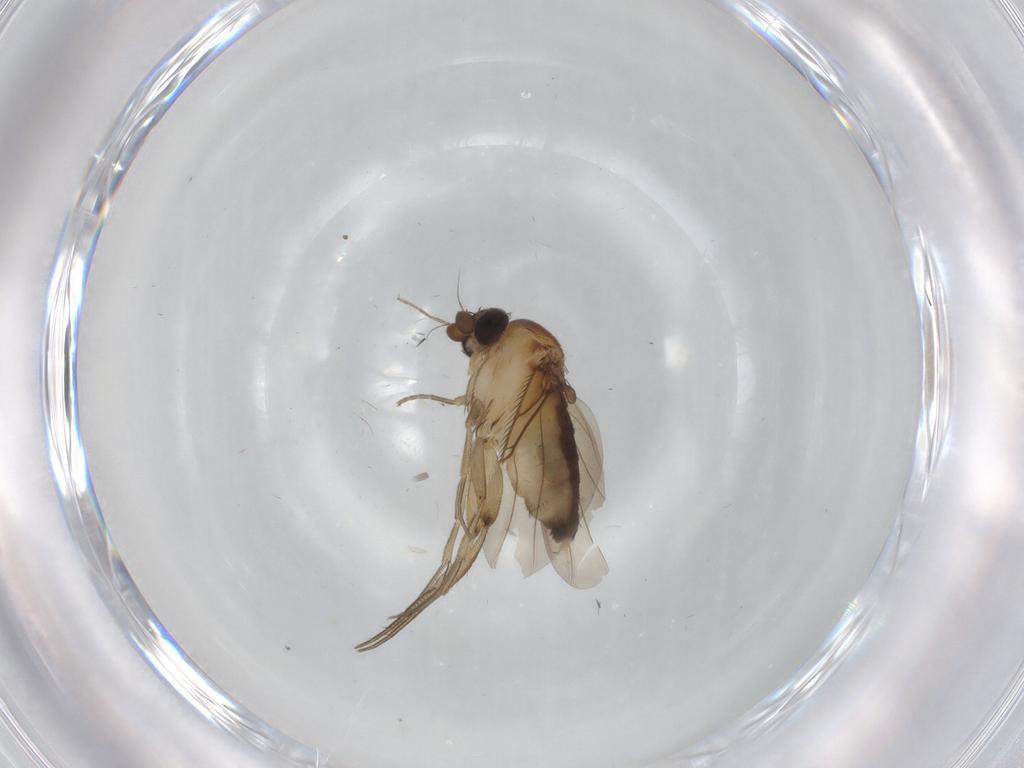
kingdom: Animalia
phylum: Arthropoda
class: Insecta
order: Diptera
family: Phoridae
